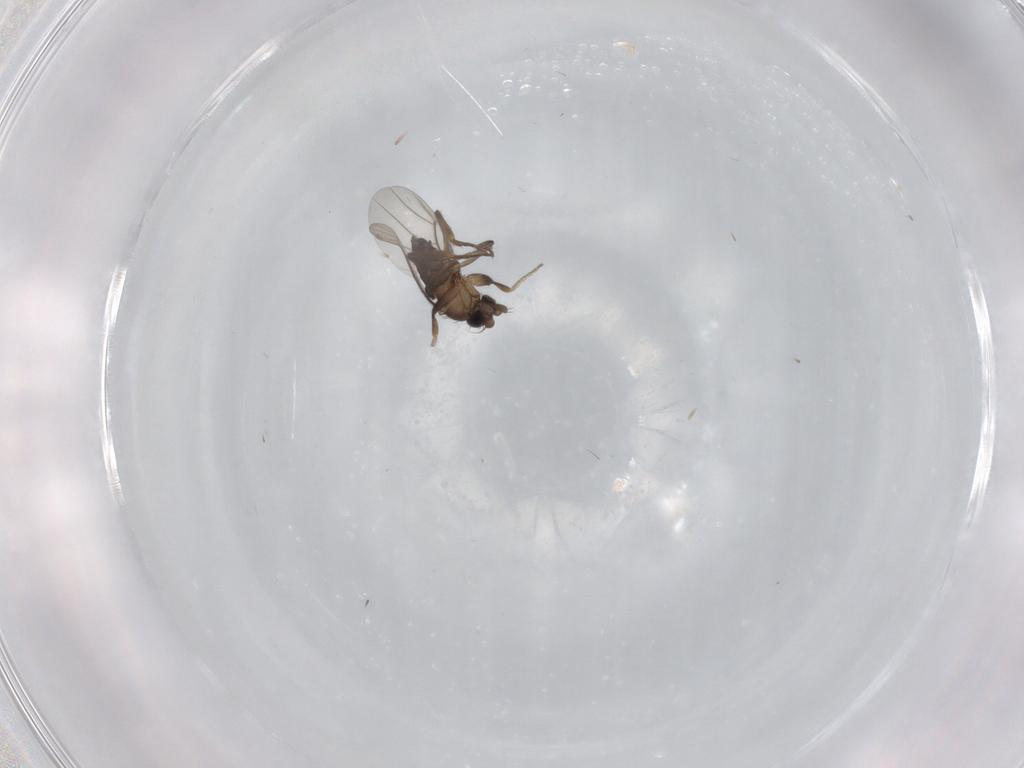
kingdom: Animalia
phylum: Arthropoda
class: Insecta
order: Diptera
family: Phoridae
